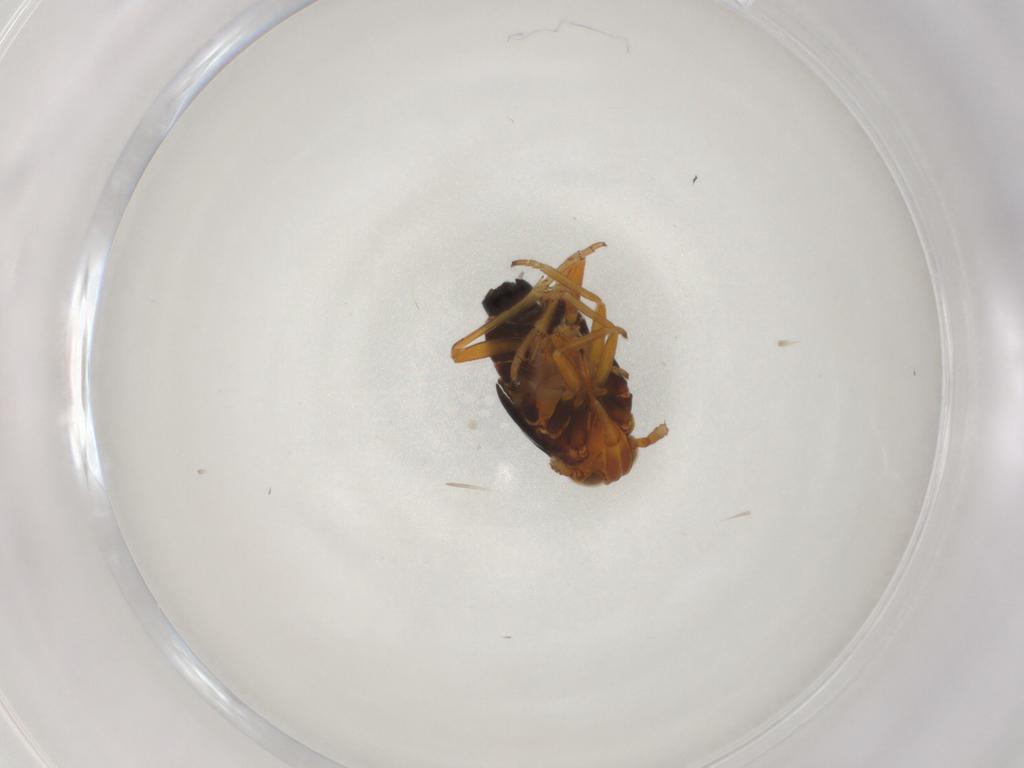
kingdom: Animalia
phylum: Arthropoda
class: Insecta
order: Hemiptera
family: Delphacidae
